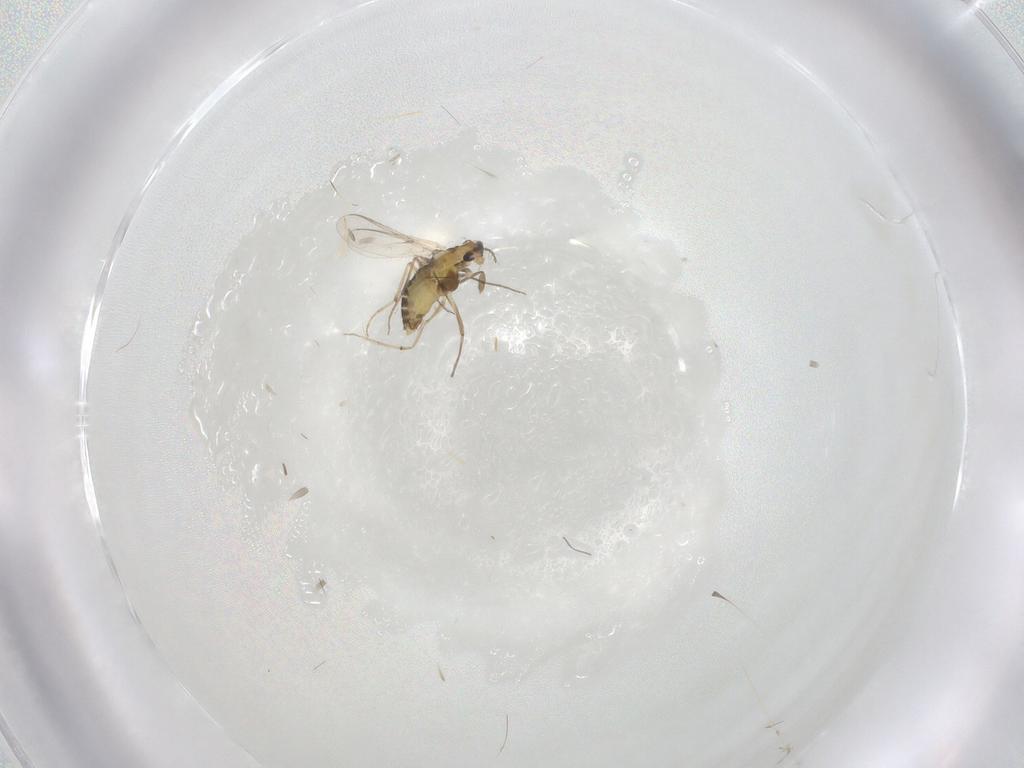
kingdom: Animalia
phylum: Arthropoda
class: Insecta
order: Diptera
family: Chironomidae
